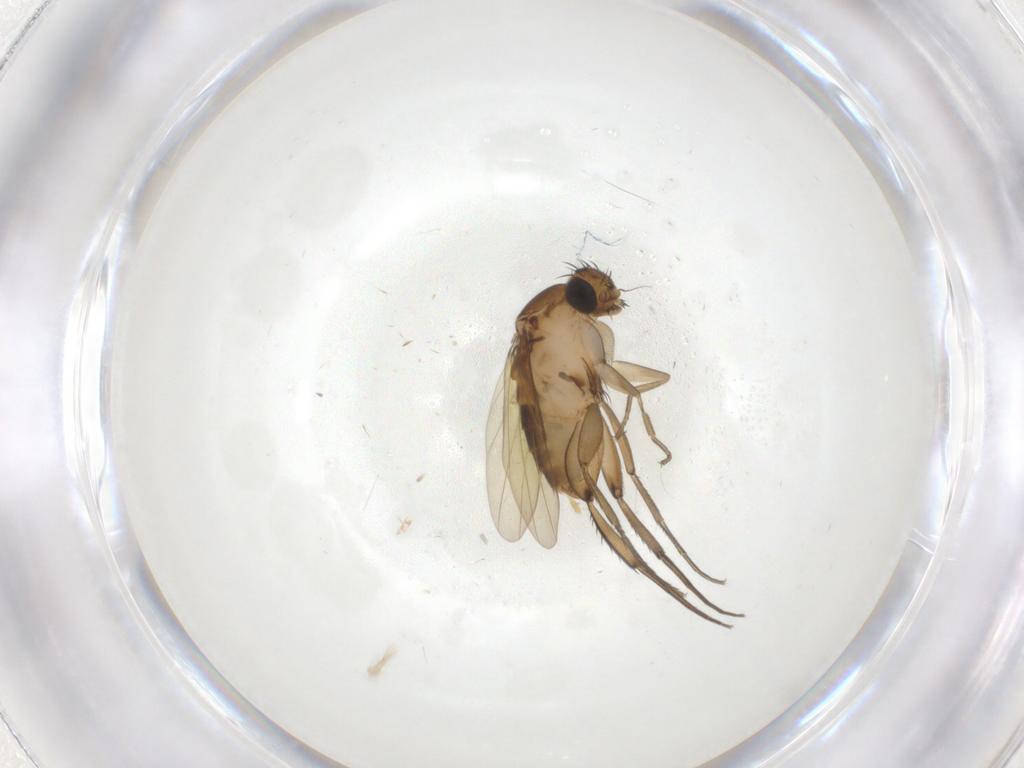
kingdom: Animalia
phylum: Arthropoda
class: Insecta
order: Diptera
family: Phoridae
